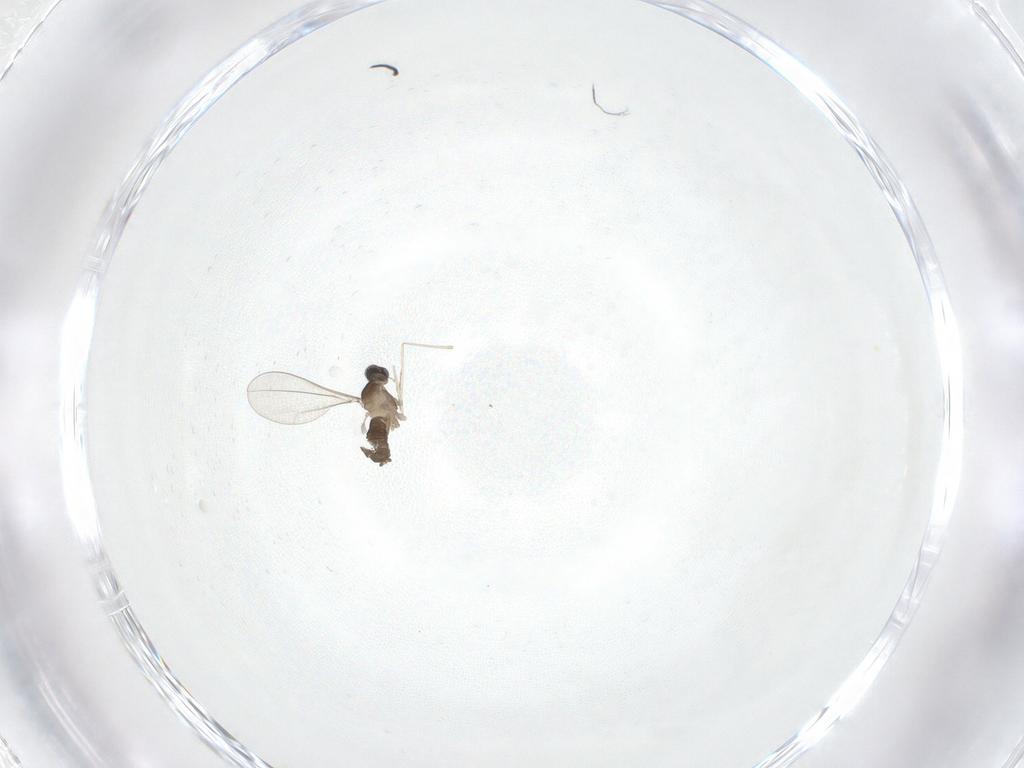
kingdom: Animalia
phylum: Arthropoda
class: Insecta
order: Diptera
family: Cecidomyiidae
